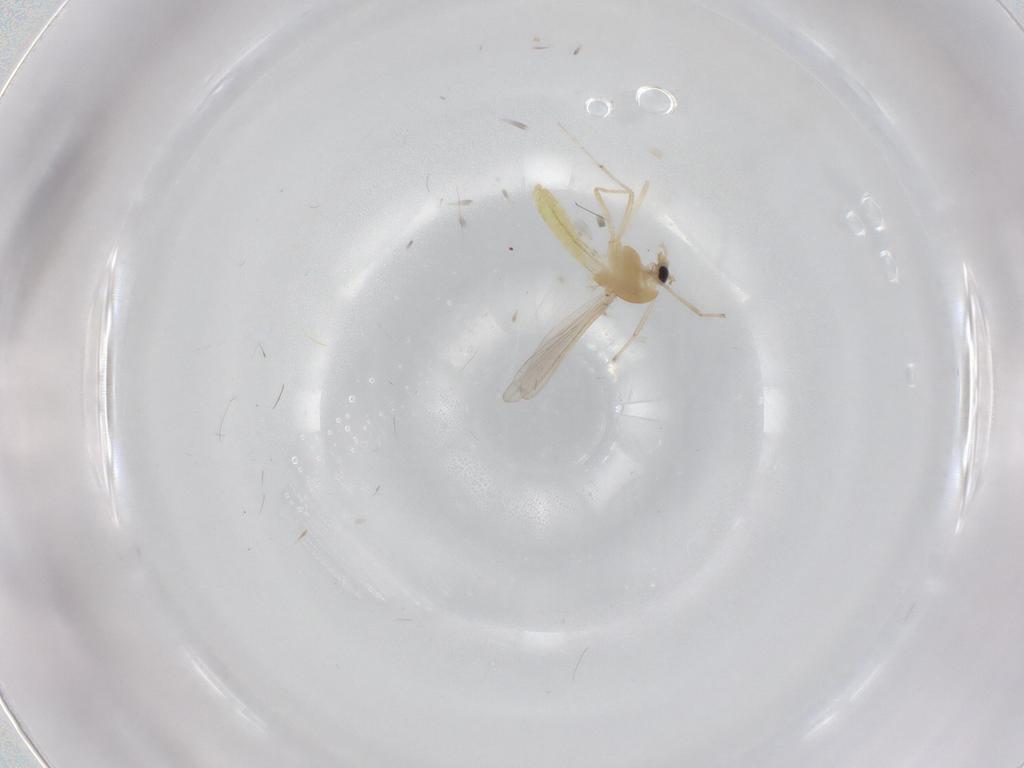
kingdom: Animalia
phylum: Arthropoda
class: Insecta
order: Diptera
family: Chironomidae
